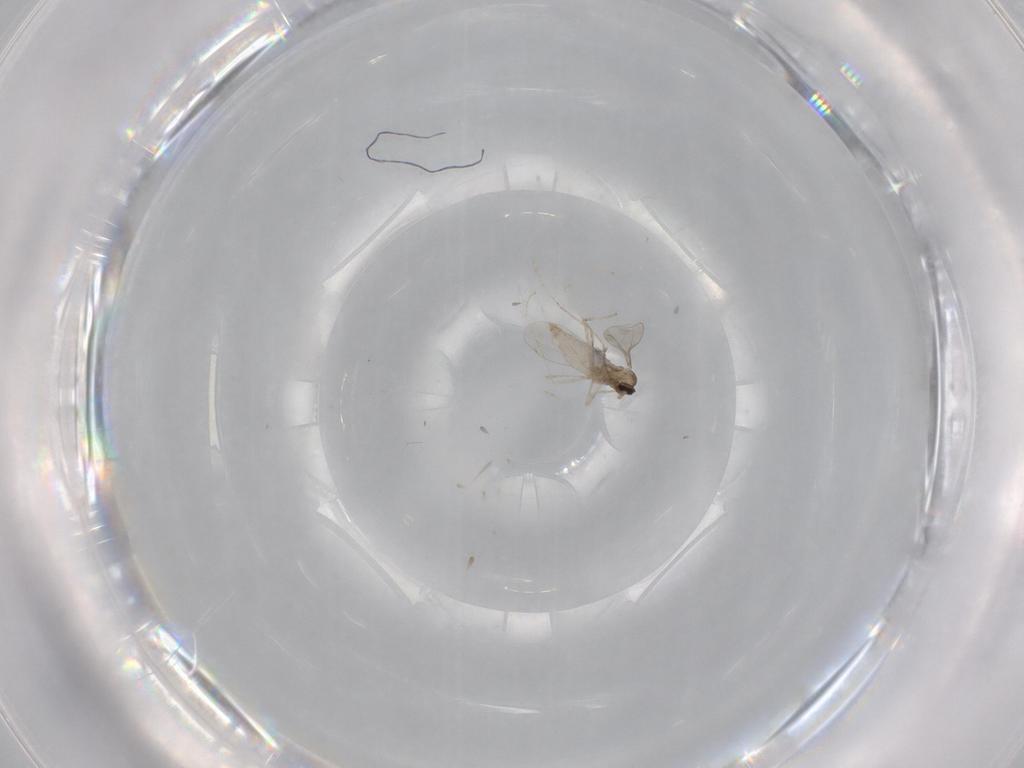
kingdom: Animalia
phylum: Arthropoda
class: Insecta
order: Diptera
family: Cecidomyiidae
